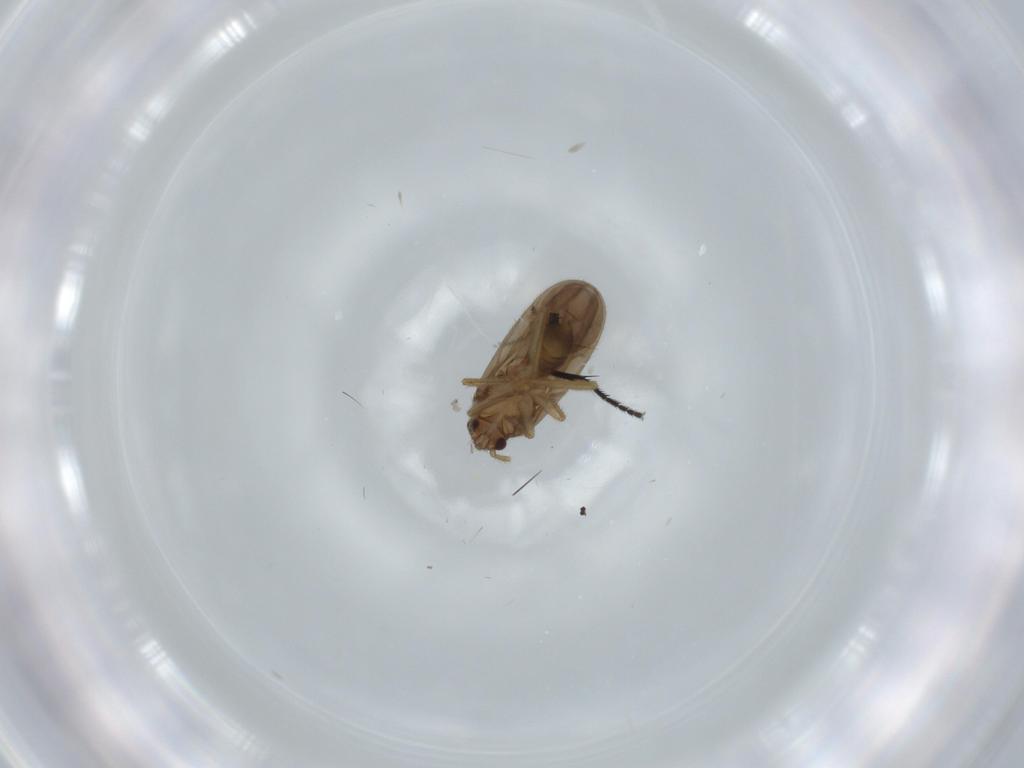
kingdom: Animalia
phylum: Arthropoda
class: Insecta
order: Hemiptera
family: Ceratocombidae
